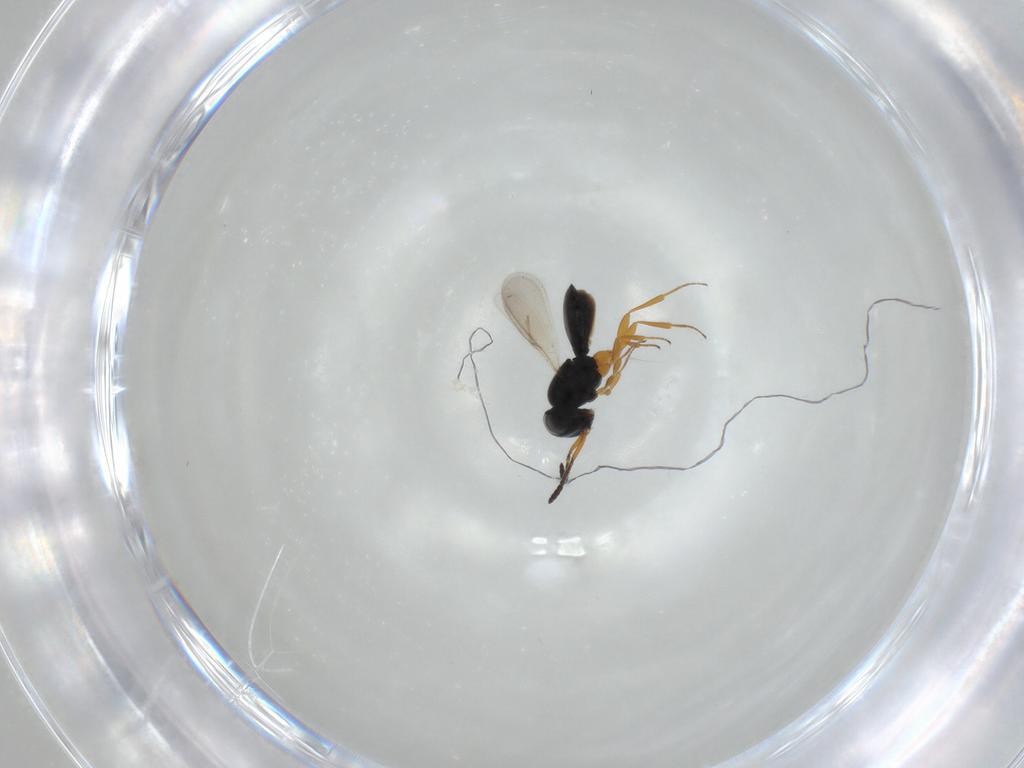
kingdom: Animalia
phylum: Arthropoda
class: Insecta
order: Hymenoptera
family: Scelionidae
